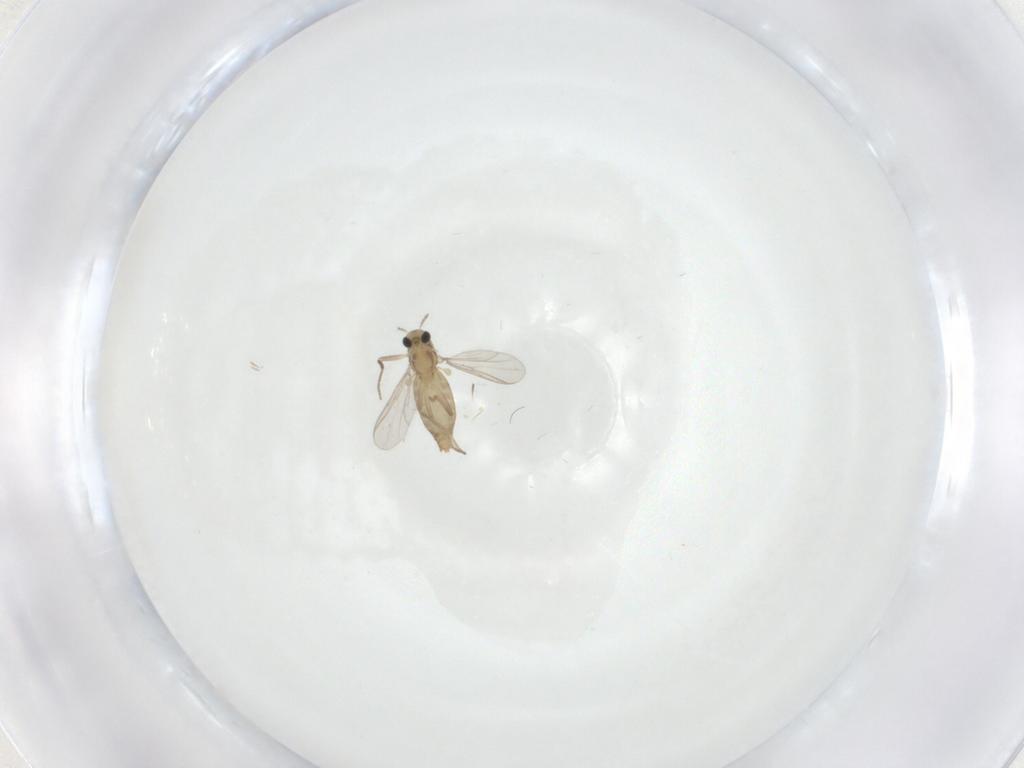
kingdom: Animalia
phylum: Arthropoda
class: Insecta
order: Diptera
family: Chironomidae
